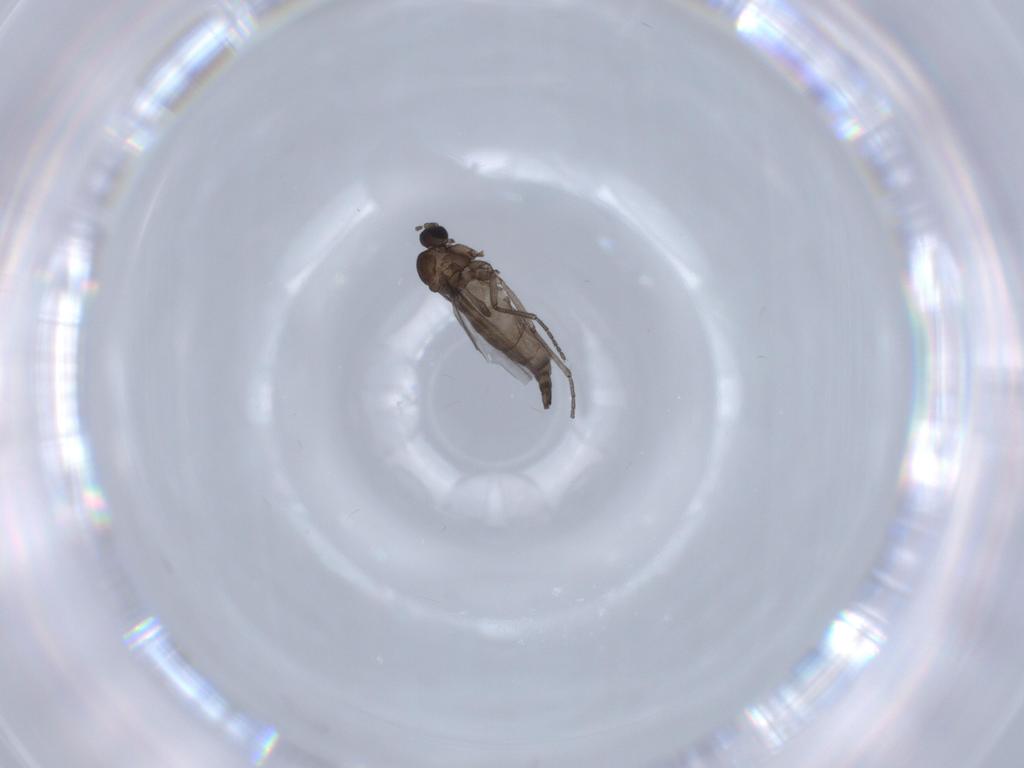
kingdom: Animalia
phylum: Arthropoda
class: Insecta
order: Diptera
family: Sciaridae
